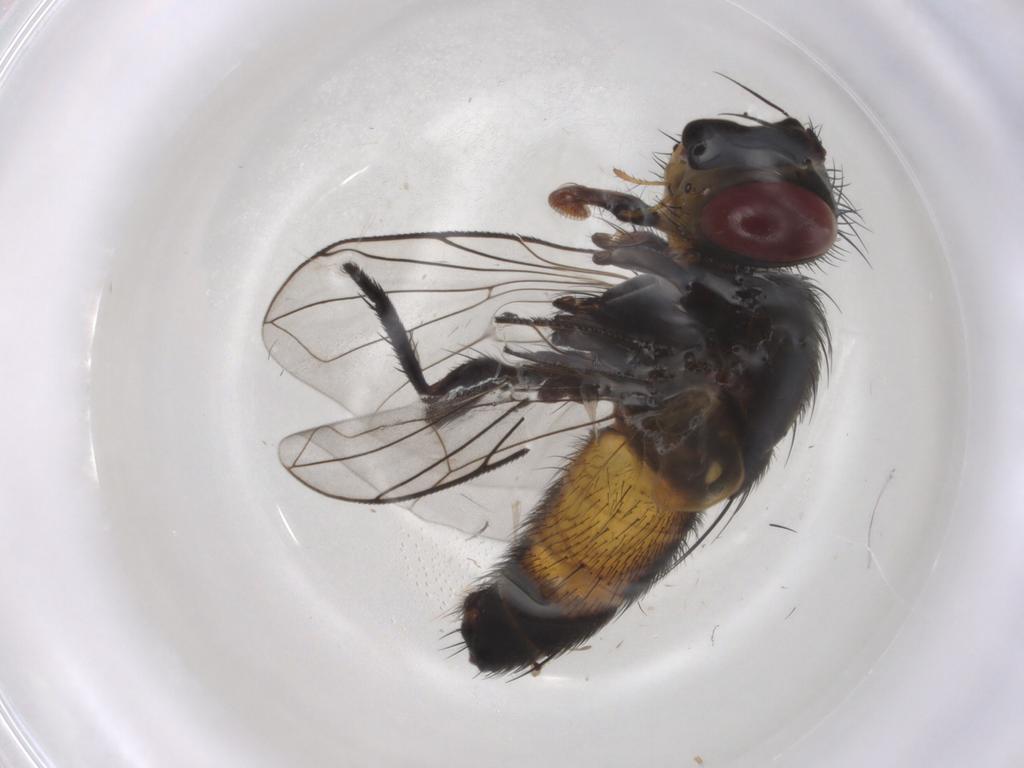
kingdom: Animalia
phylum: Arthropoda
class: Insecta
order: Diptera
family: Tachinidae
